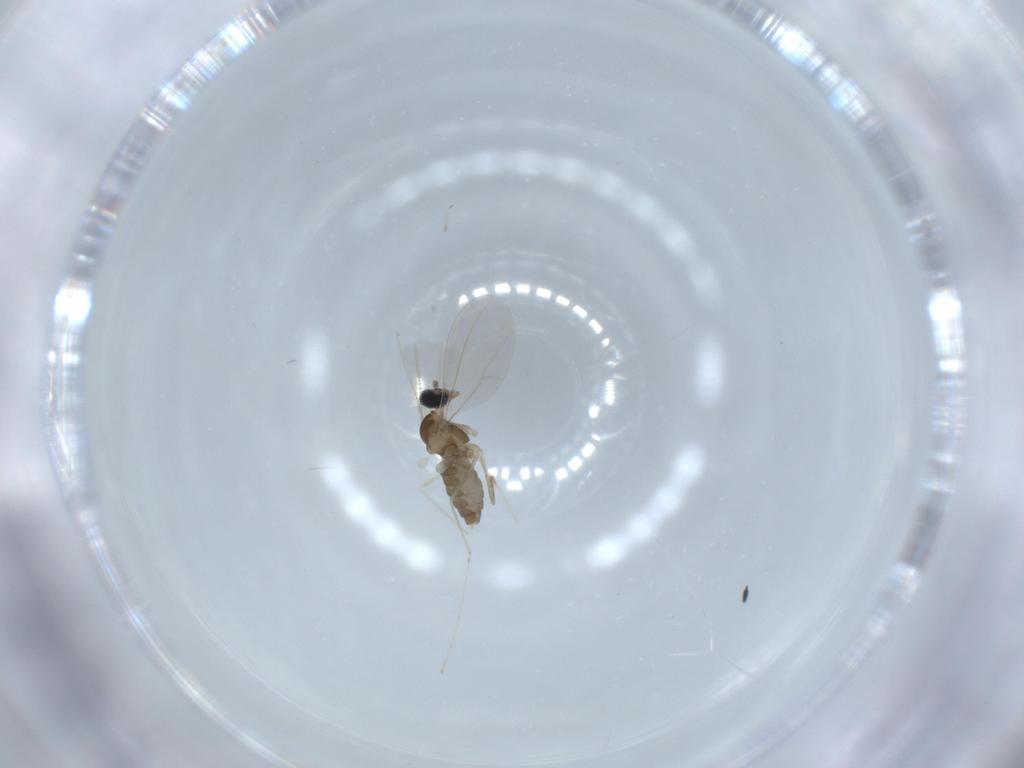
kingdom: Animalia
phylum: Arthropoda
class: Insecta
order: Diptera
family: Cecidomyiidae
